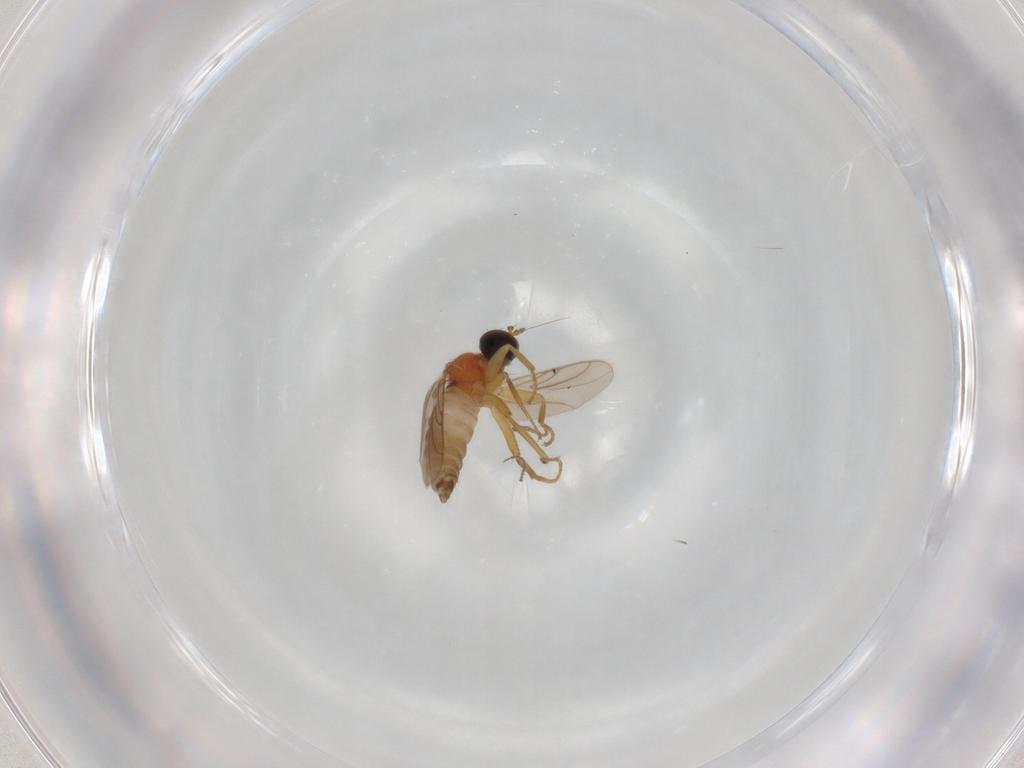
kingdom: Animalia
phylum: Arthropoda
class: Insecta
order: Diptera
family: Hybotidae
